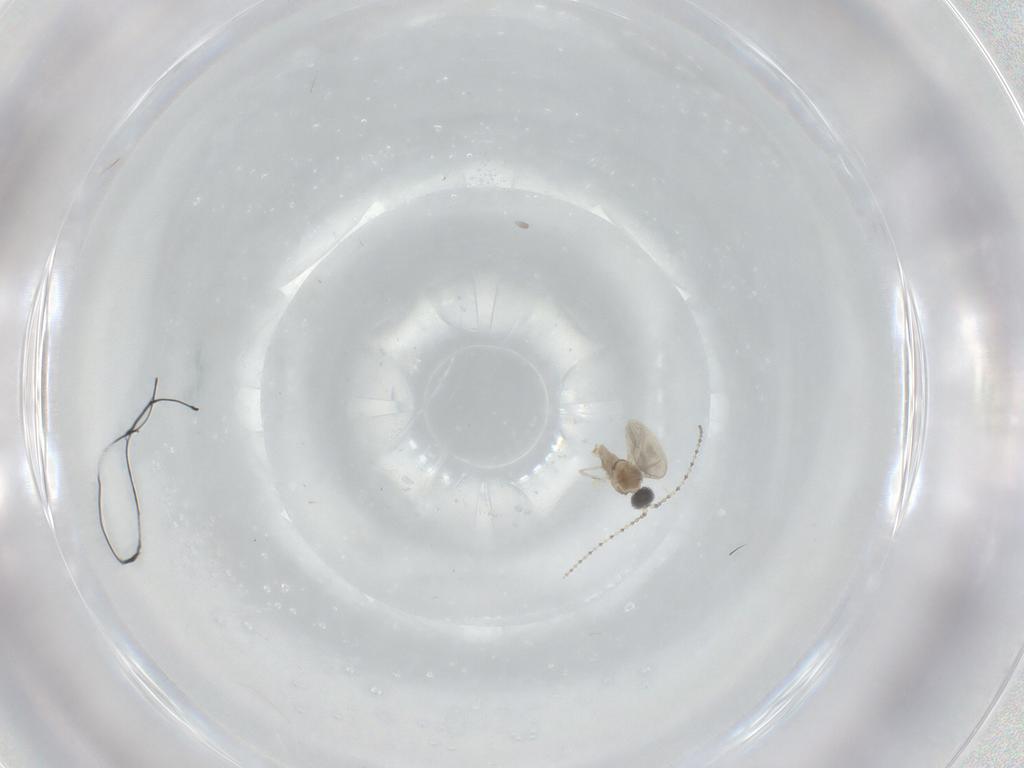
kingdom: Animalia
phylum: Arthropoda
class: Insecta
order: Diptera
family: Cecidomyiidae
